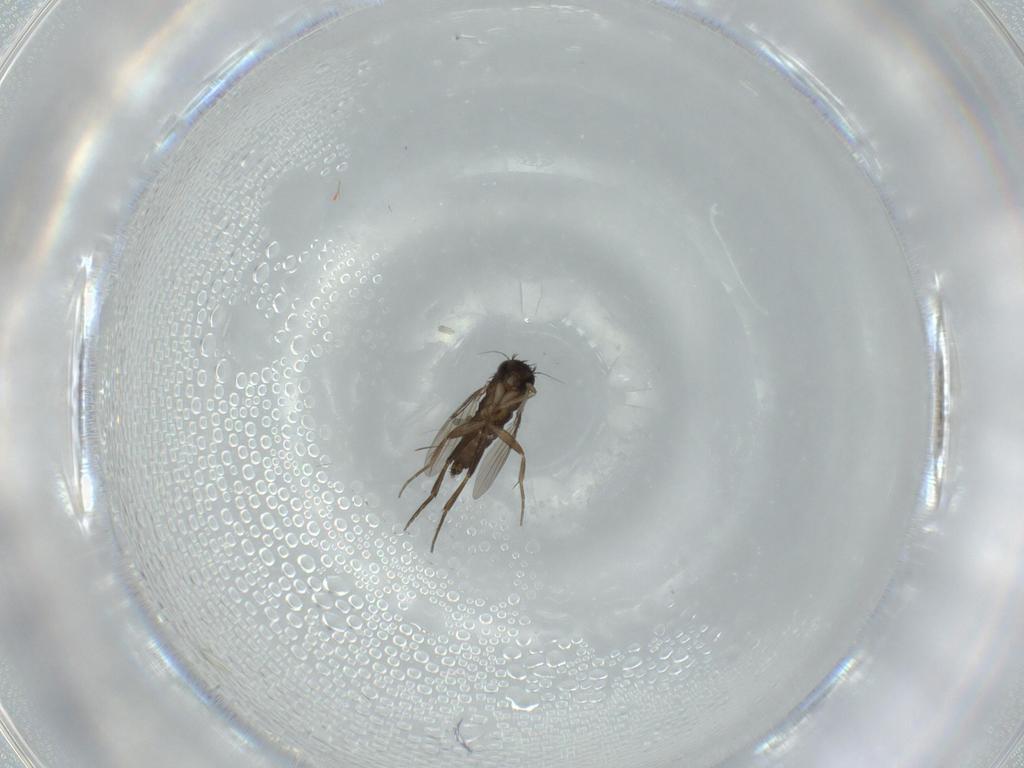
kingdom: Animalia
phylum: Arthropoda
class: Insecta
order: Diptera
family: Phoridae
